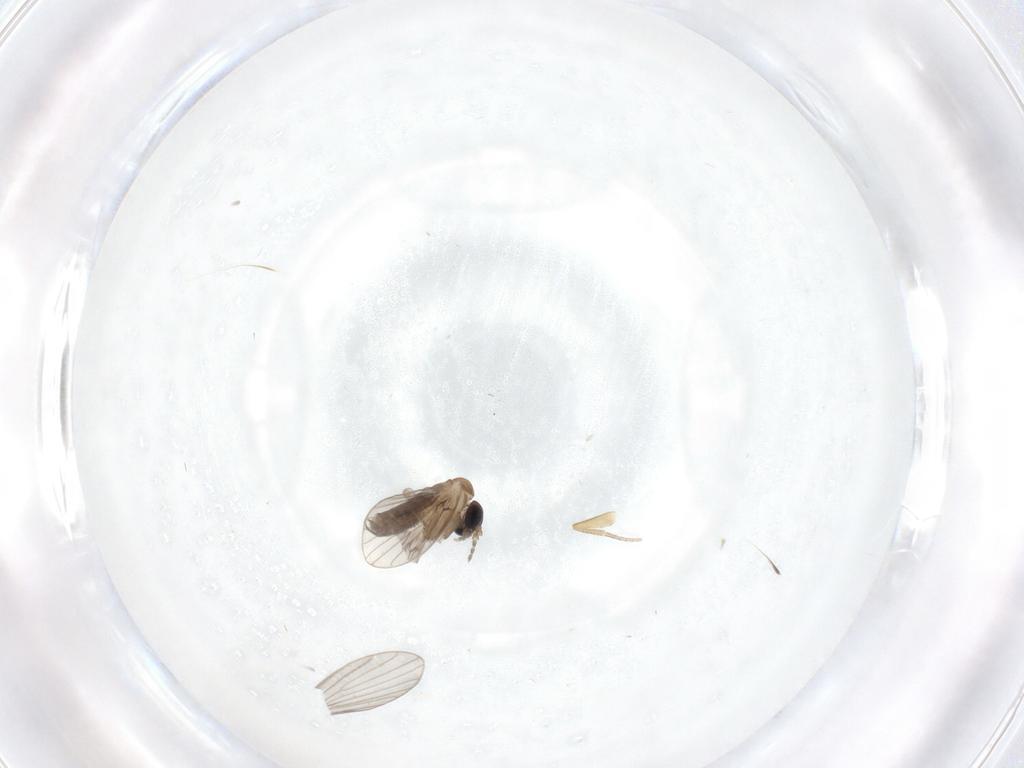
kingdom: Animalia
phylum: Arthropoda
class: Insecta
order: Diptera
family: Psychodidae
